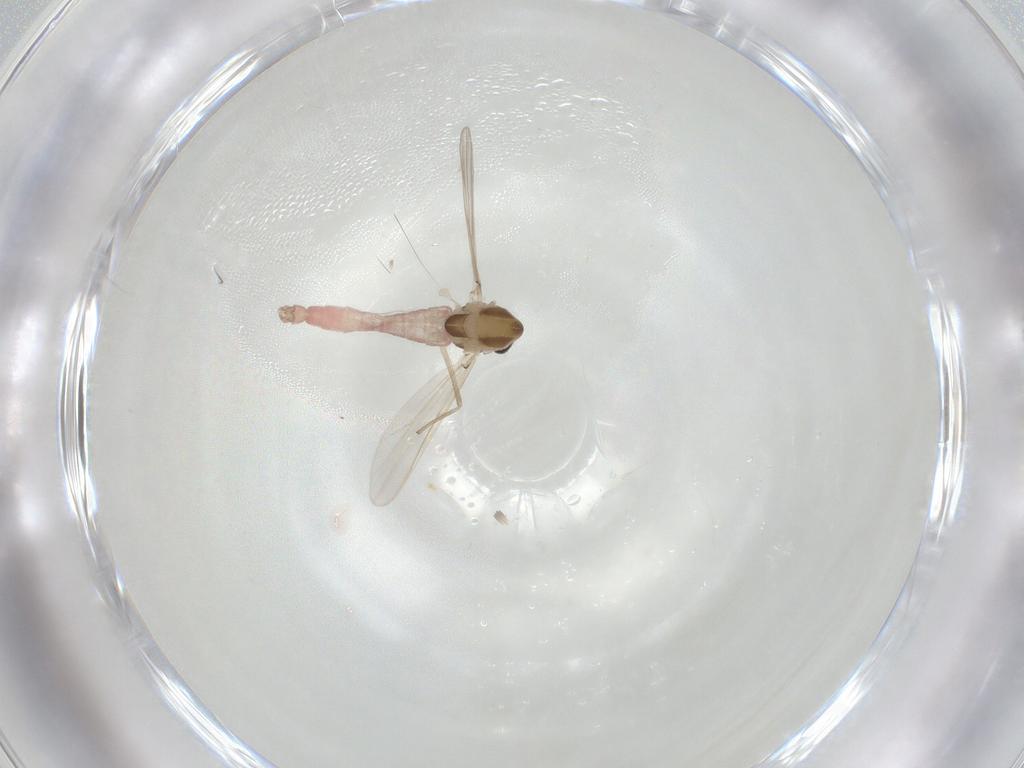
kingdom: Animalia
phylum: Arthropoda
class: Insecta
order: Diptera
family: Chironomidae
